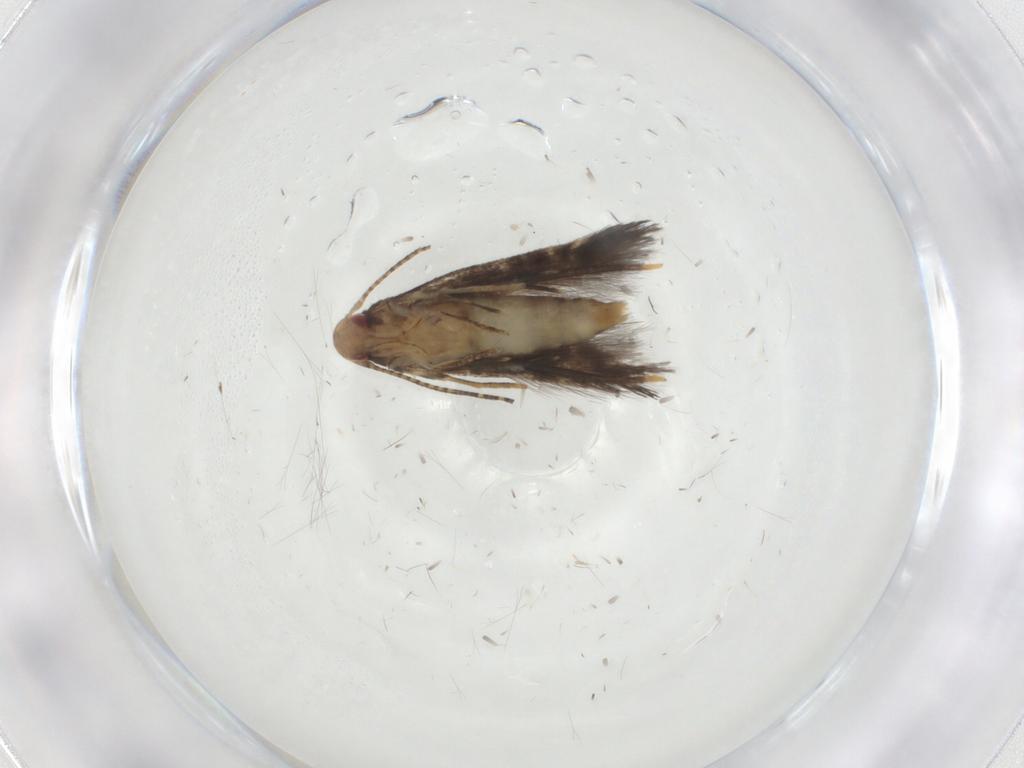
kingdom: Animalia
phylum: Arthropoda
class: Insecta
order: Lepidoptera
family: Momphidae
